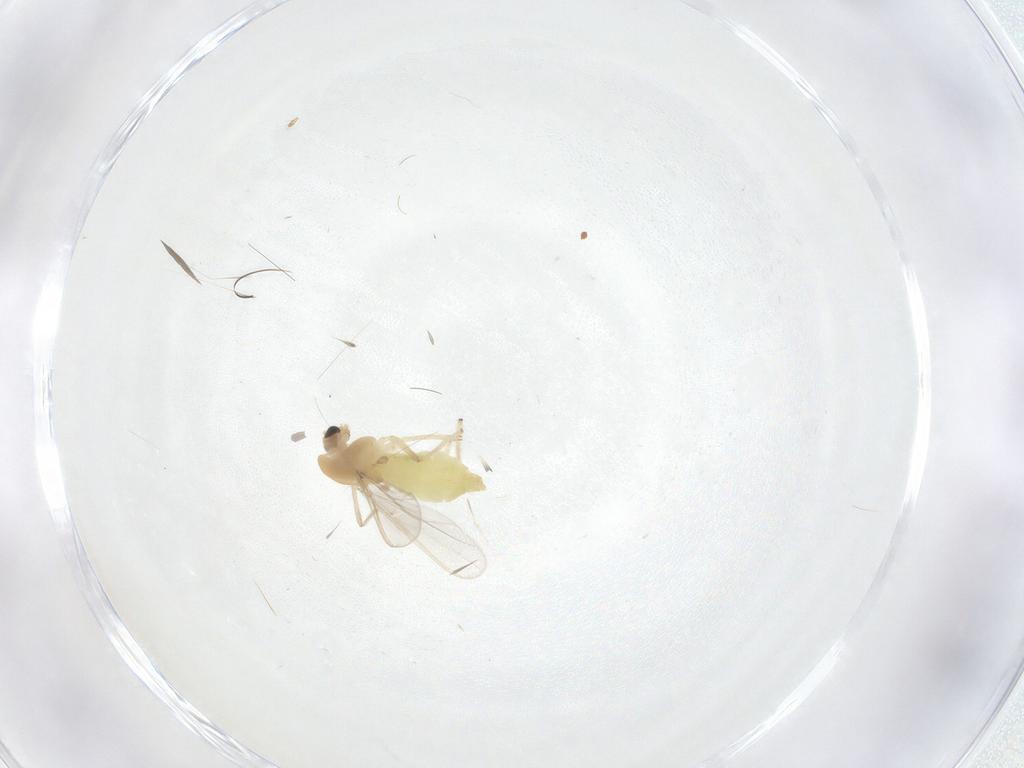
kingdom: Animalia
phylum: Arthropoda
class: Insecta
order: Diptera
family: Chironomidae
